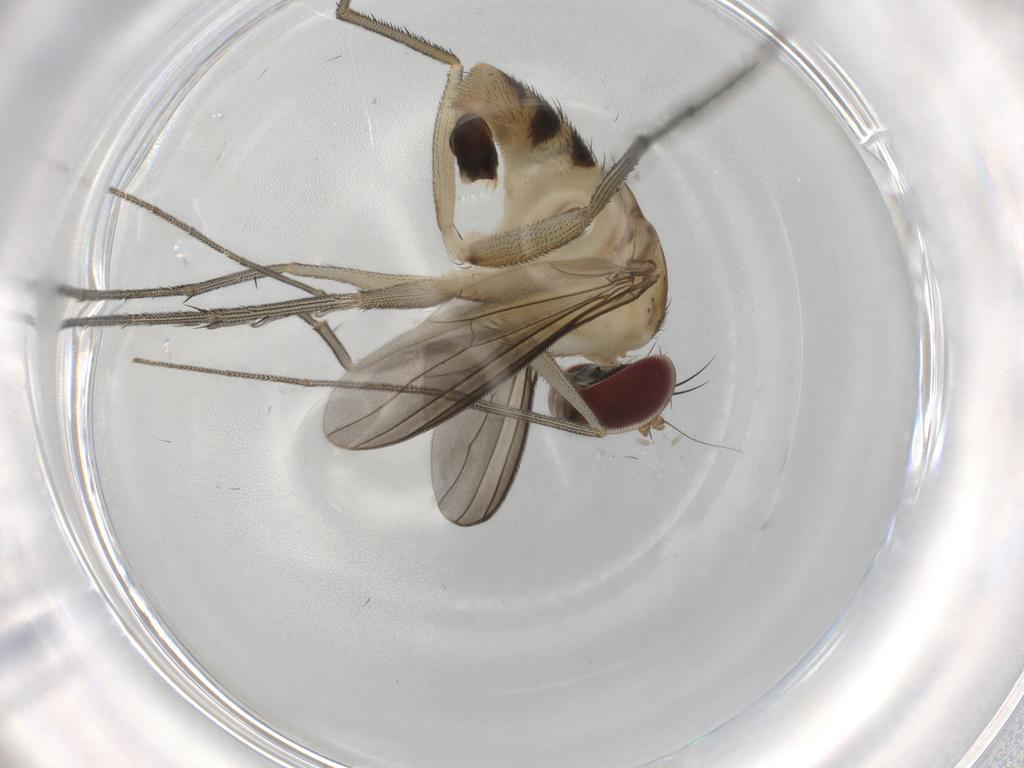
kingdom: Animalia
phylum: Arthropoda
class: Insecta
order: Diptera
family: Dolichopodidae
